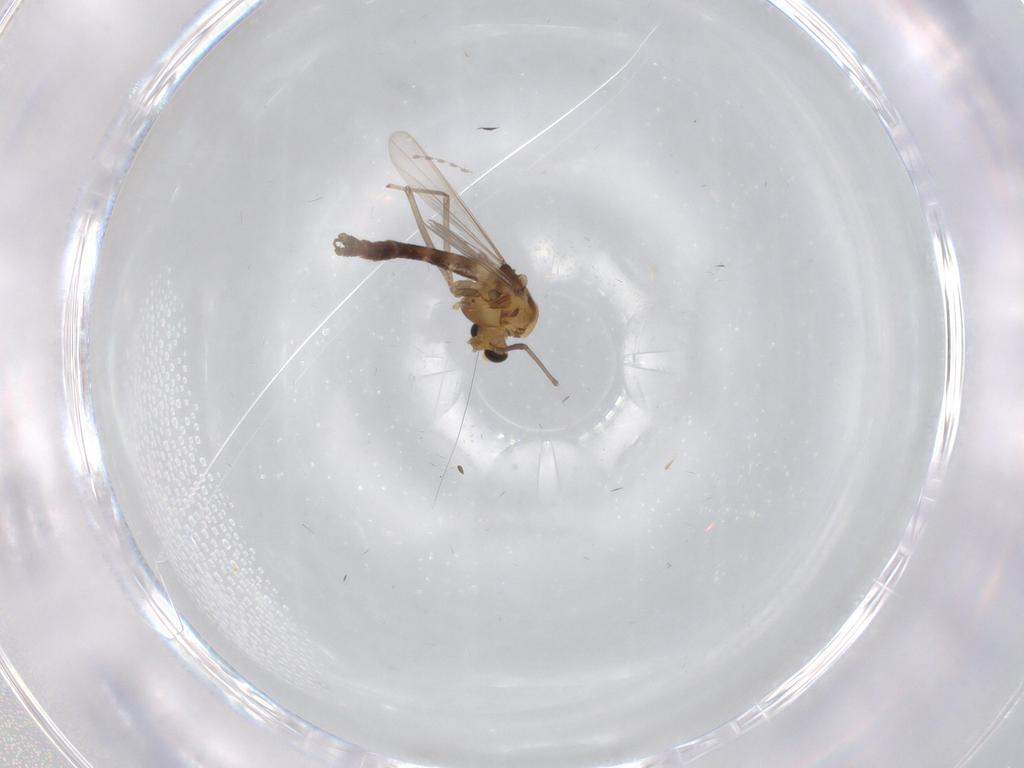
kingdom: Animalia
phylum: Arthropoda
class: Insecta
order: Diptera
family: Chironomidae
